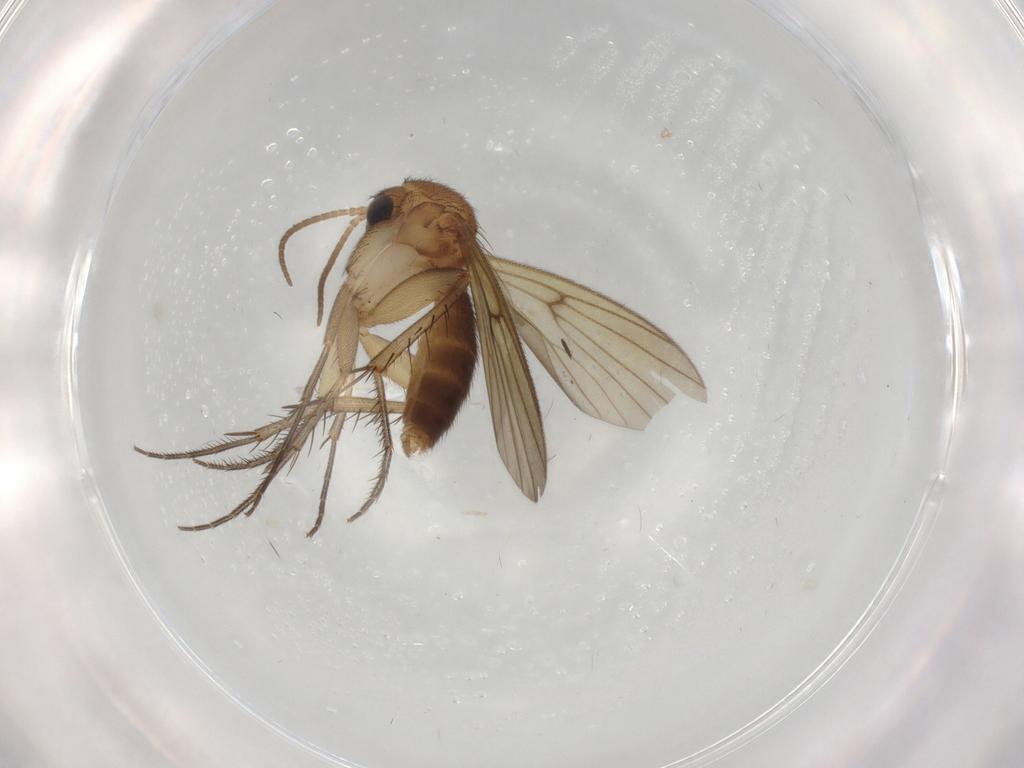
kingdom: Animalia
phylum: Arthropoda
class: Insecta
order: Diptera
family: Mycetophilidae
